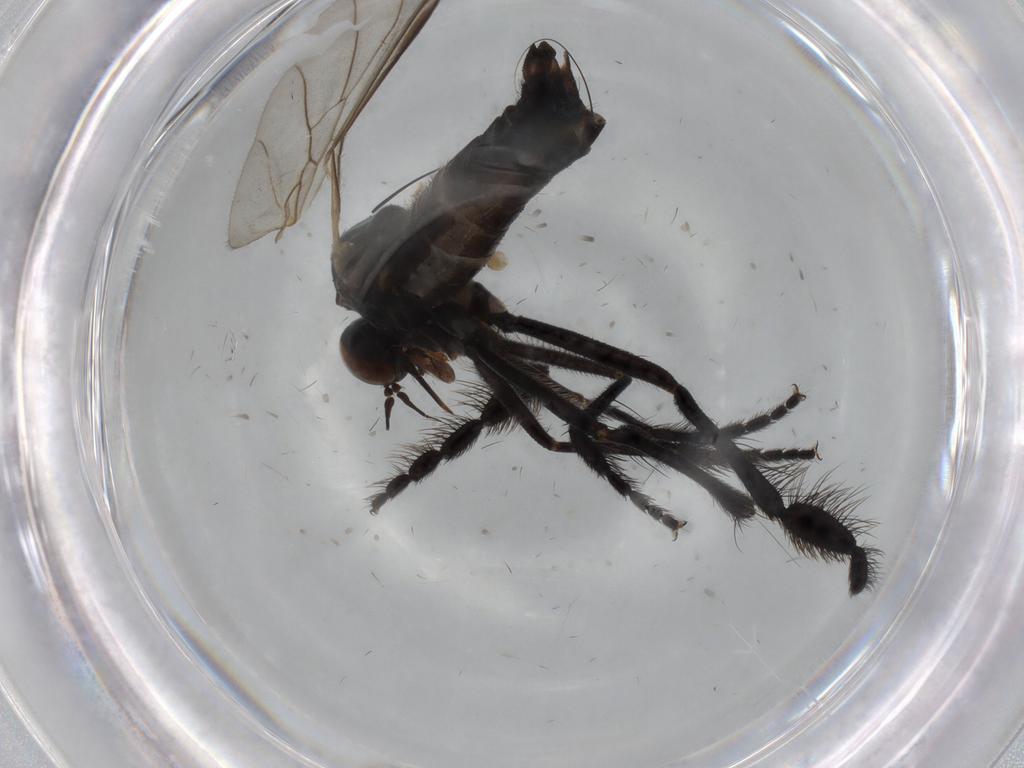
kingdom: Animalia
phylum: Arthropoda
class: Insecta
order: Diptera
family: Empididae
